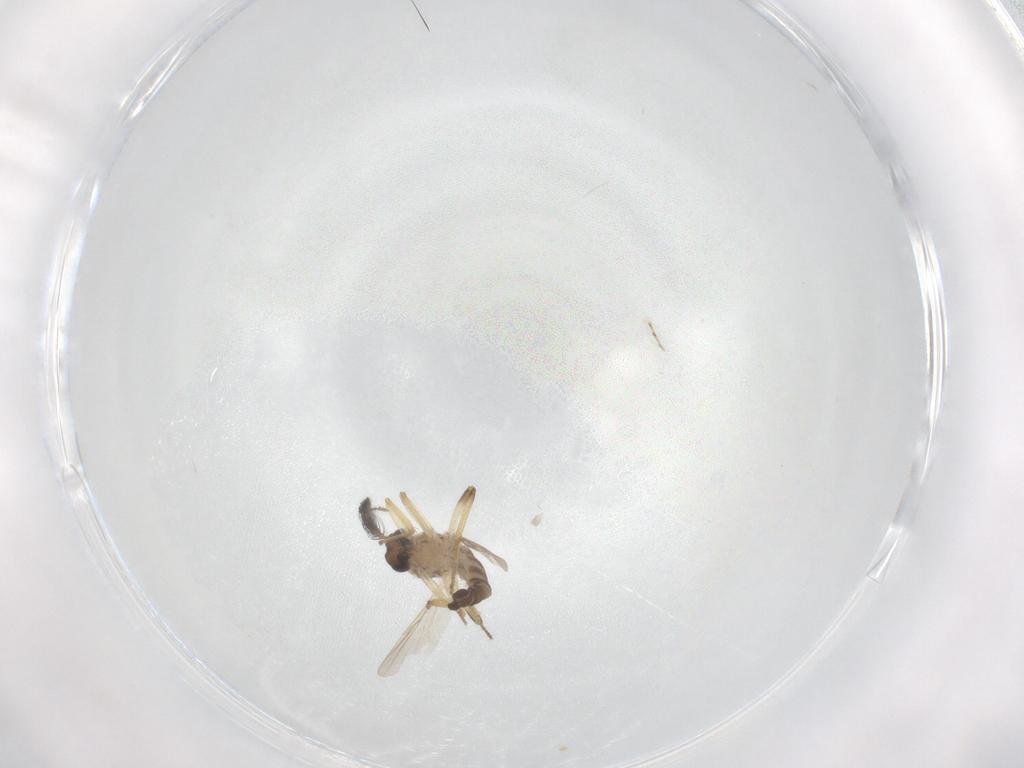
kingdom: Animalia
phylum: Arthropoda
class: Insecta
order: Diptera
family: Ceratopogonidae
